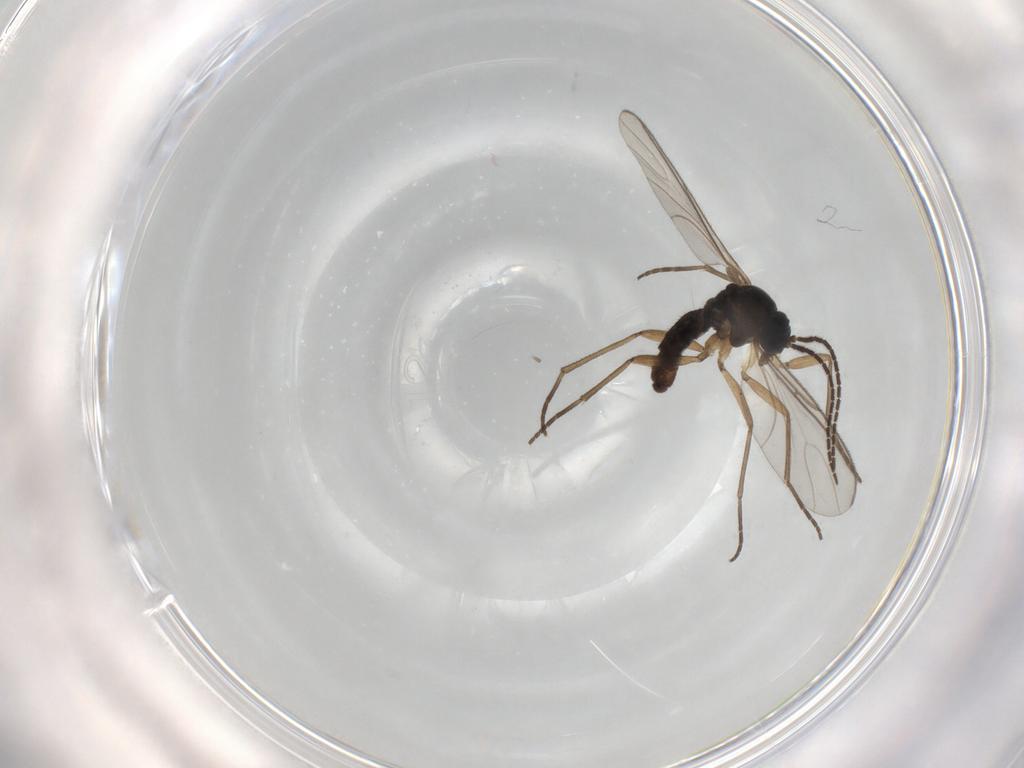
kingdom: Animalia
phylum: Arthropoda
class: Insecta
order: Diptera
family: Sciaridae
